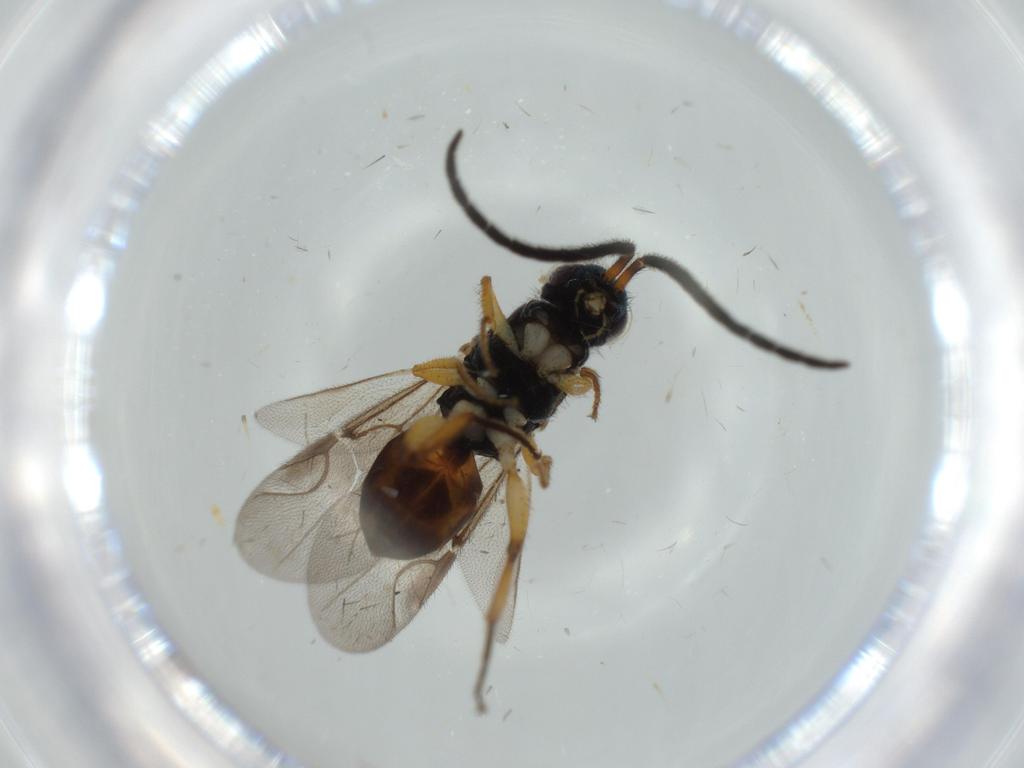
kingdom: Animalia
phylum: Arthropoda
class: Insecta
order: Hymenoptera
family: Chrysididae
